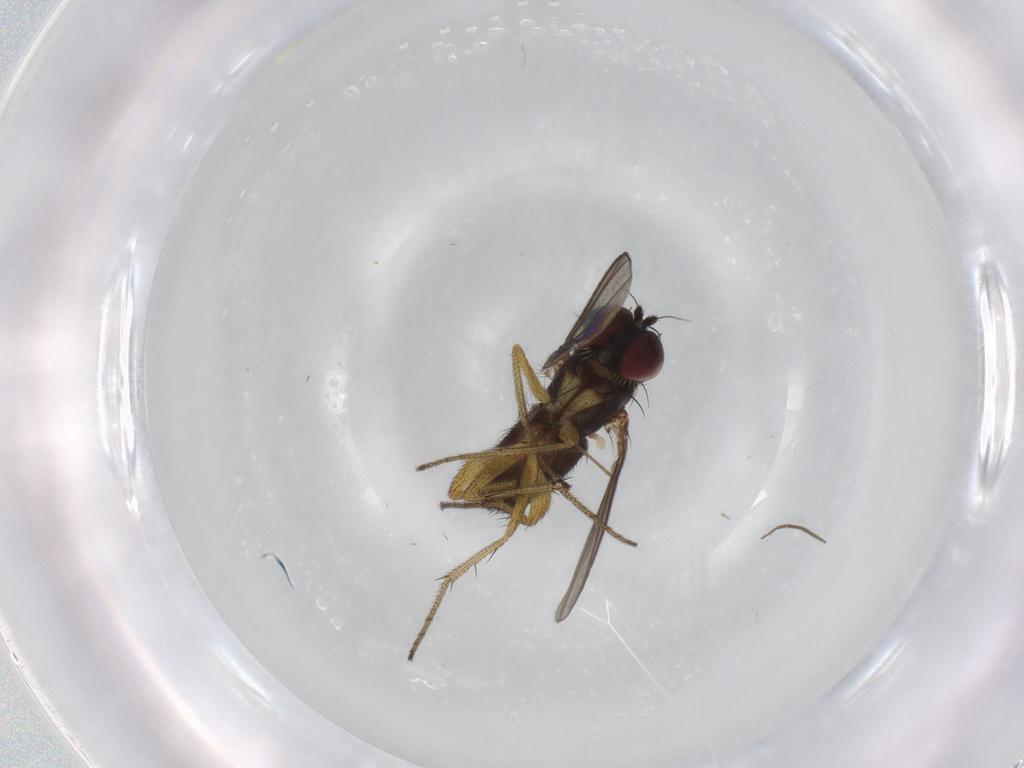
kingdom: Animalia
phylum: Arthropoda
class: Insecta
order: Diptera
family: Dolichopodidae
